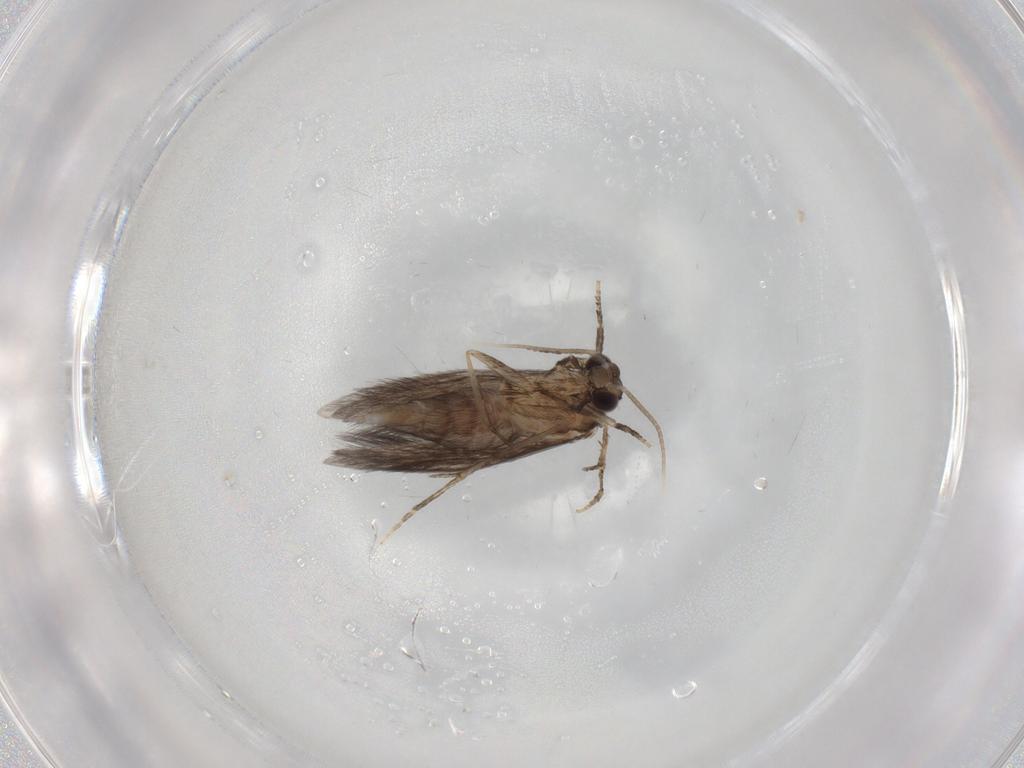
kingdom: Animalia
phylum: Arthropoda
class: Insecta
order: Trichoptera
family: Hydroptilidae
